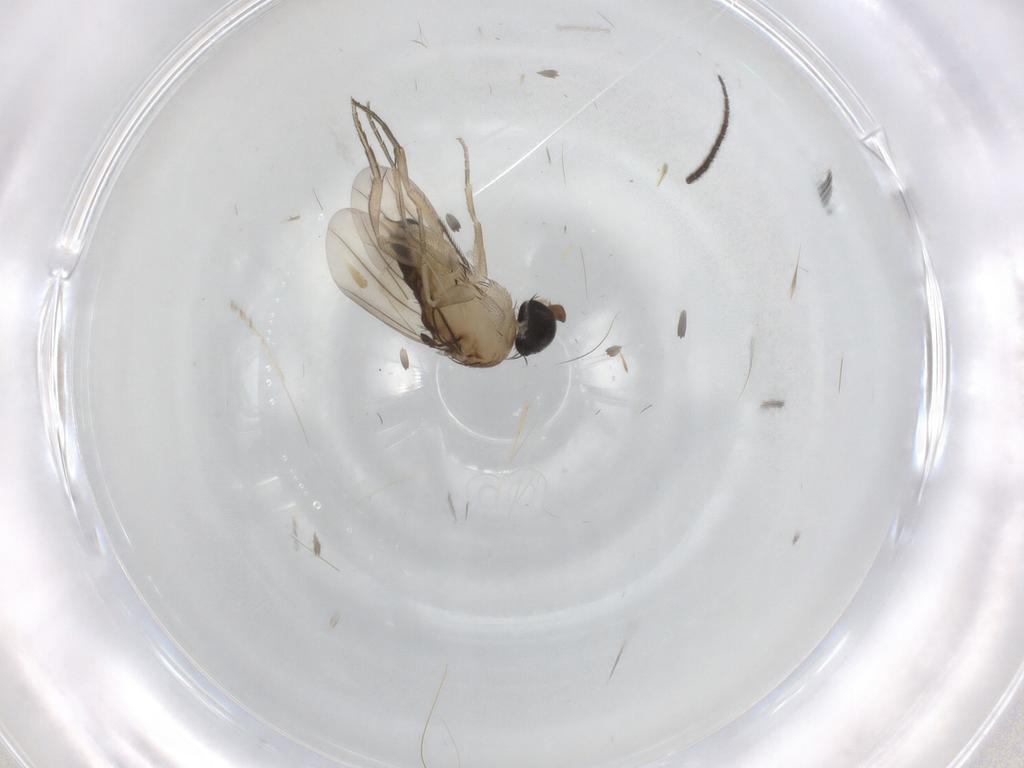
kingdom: Animalia
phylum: Arthropoda
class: Insecta
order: Diptera
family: Phoridae
